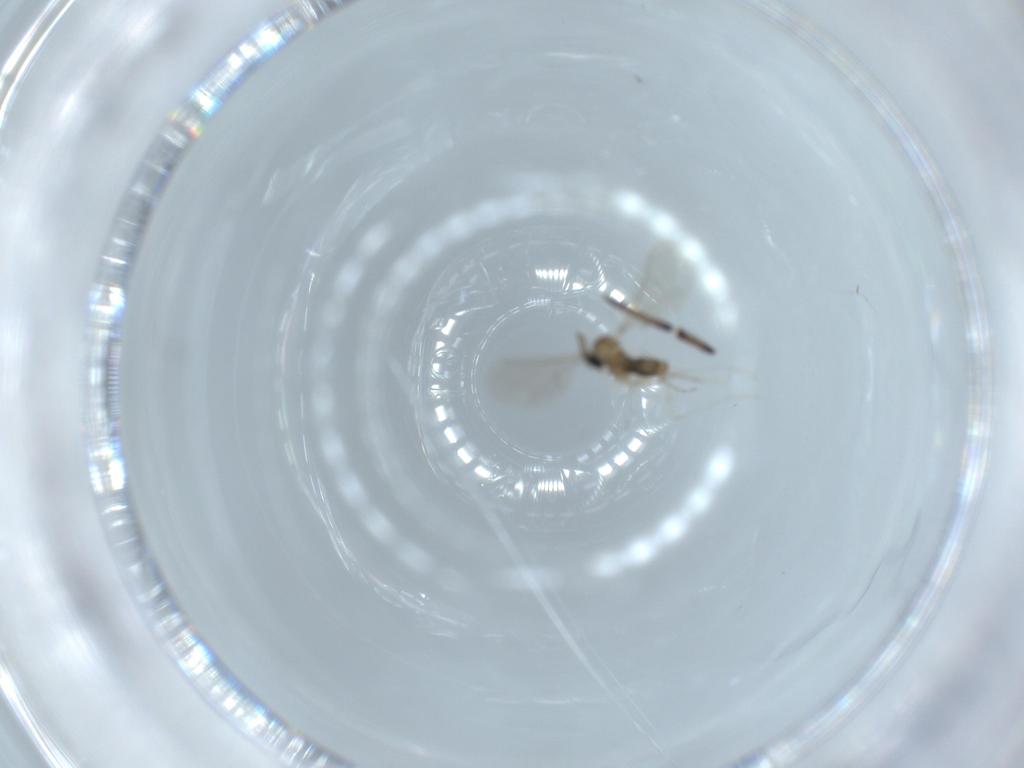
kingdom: Animalia
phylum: Arthropoda
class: Insecta
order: Diptera
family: Cecidomyiidae
